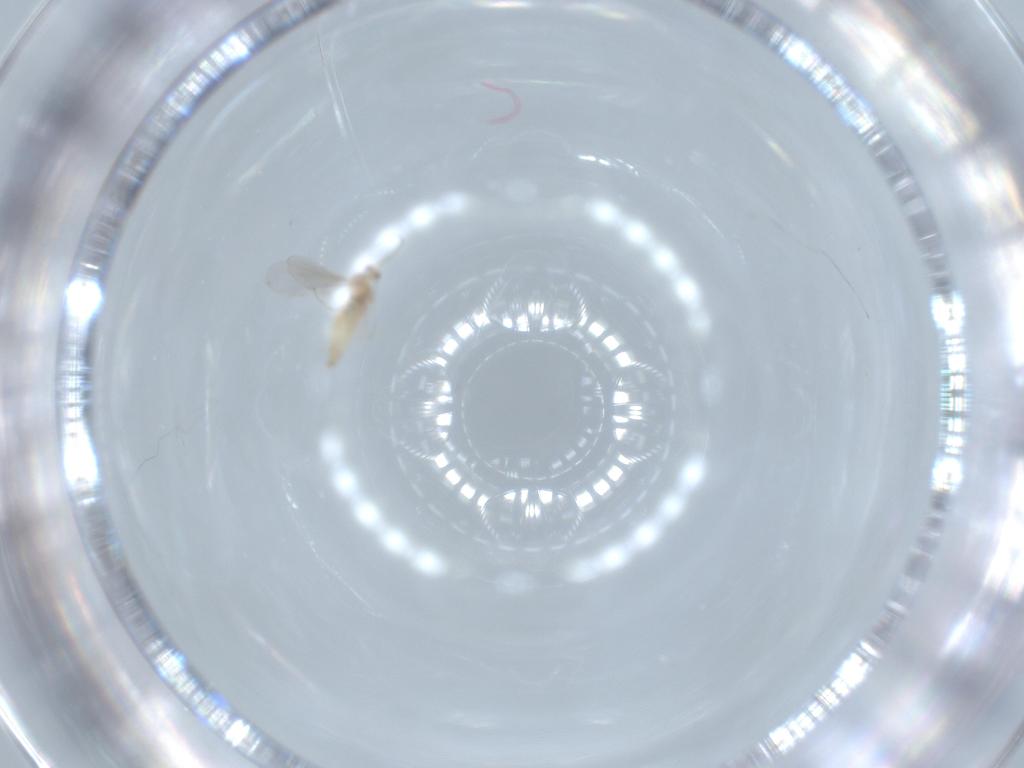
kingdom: Animalia
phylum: Arthropoda
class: Insecta
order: Diptera
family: Cecidomyiidae
